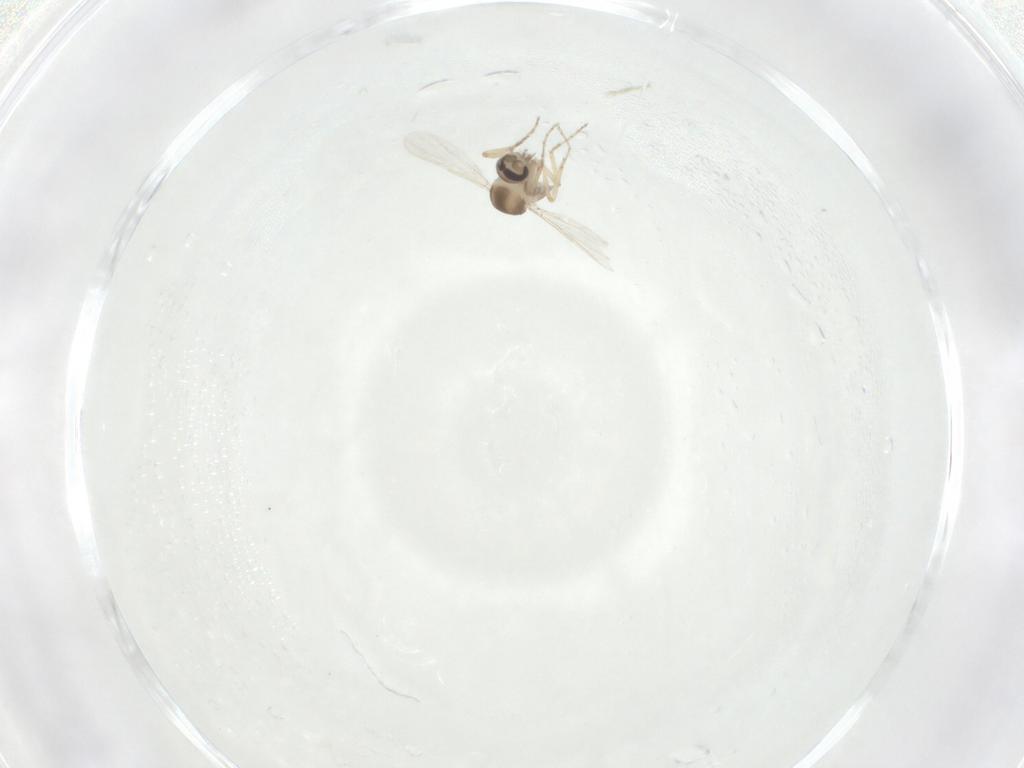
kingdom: Animalia
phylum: Arthropoda
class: Insecta
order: Diptera
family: Ceratopogonidae
